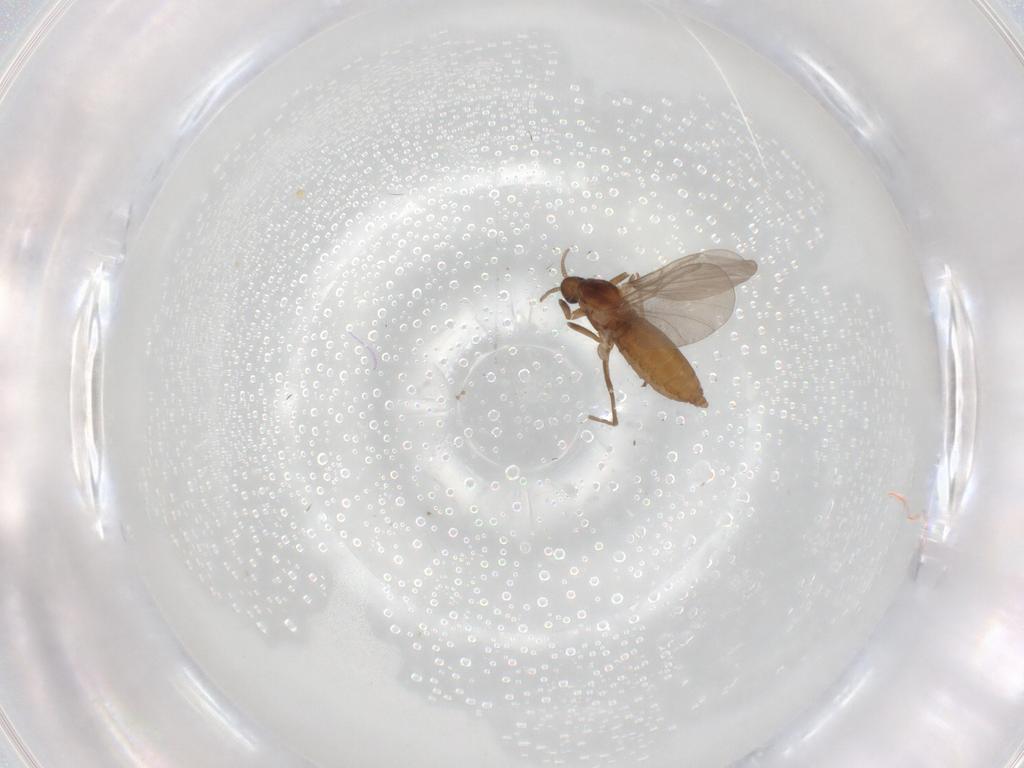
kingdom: Animalia
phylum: Arthropoda
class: Insecta
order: Diptera
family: Cecidomyiidae
